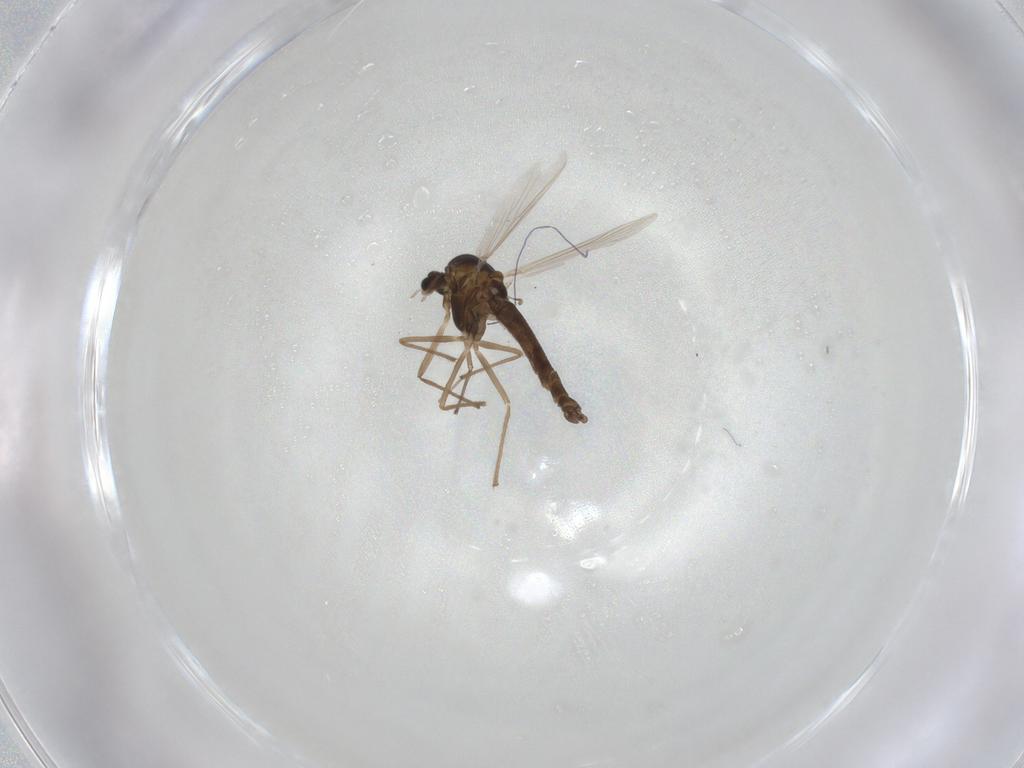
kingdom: Animalia
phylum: Arthropoda
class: Insecta
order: Diptera
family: Chironomidae
